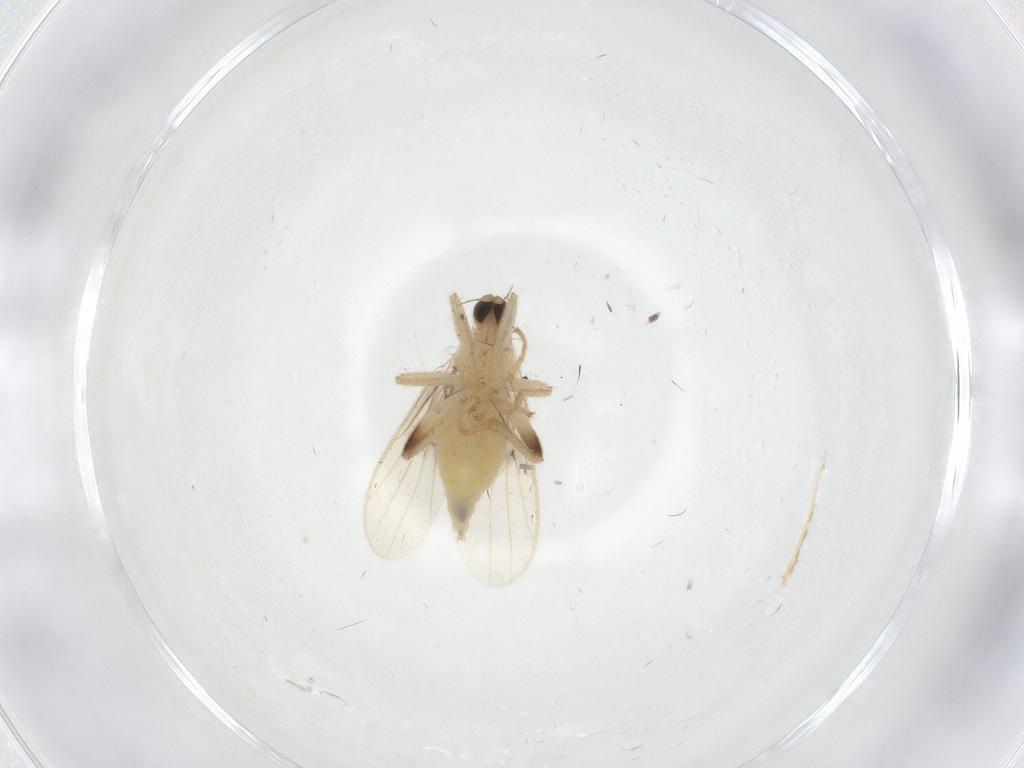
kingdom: Animalia
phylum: Arthropoda
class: Insecta
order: Diptera
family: Hybotidae
